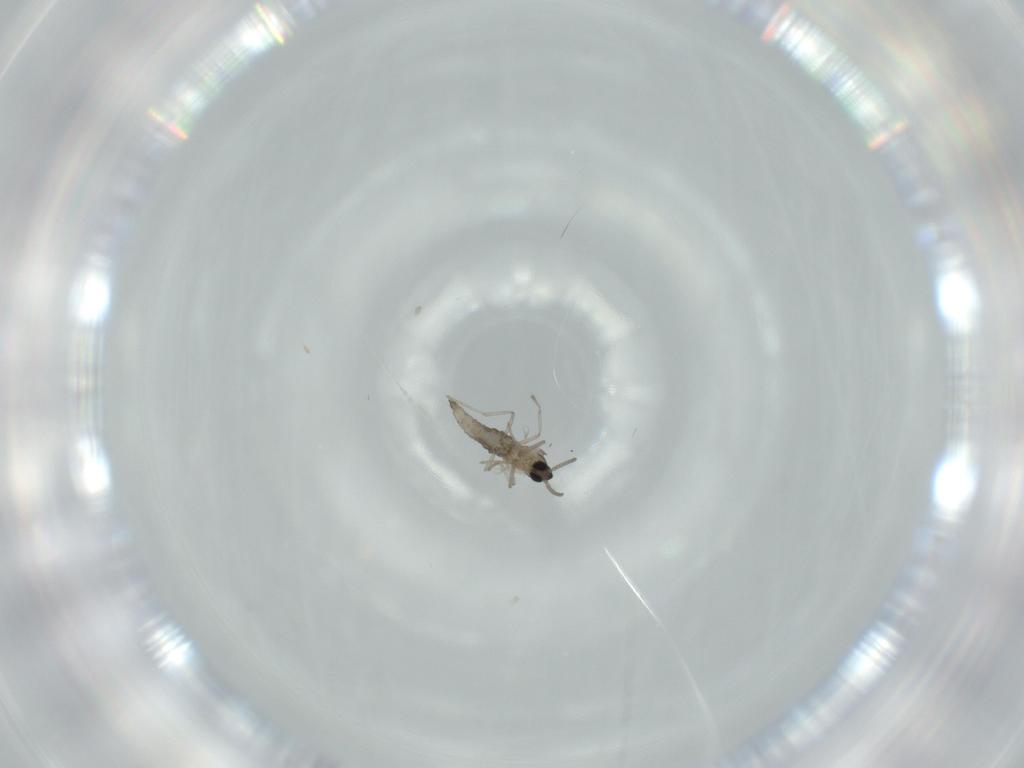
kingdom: Animalia
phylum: Arthropoda
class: Insecta
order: Diptera
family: Cecidomyiidae
